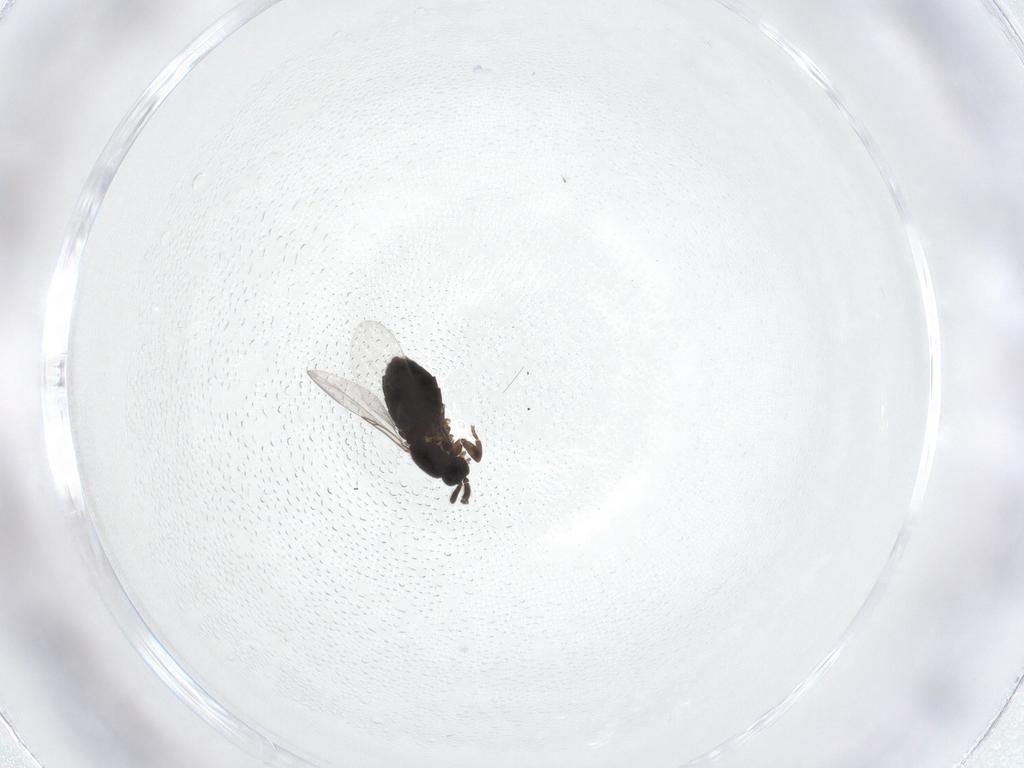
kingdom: Animalia
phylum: Arthropoda
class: Insecta
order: Diptera
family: Calliphoridae
